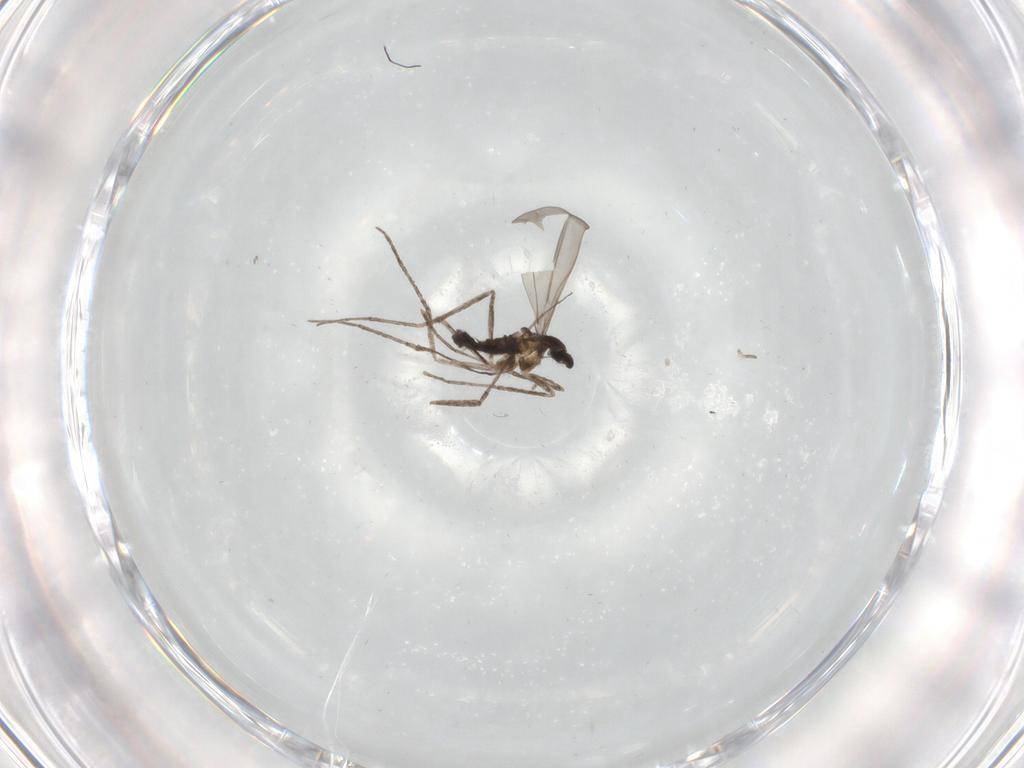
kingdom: Animalia
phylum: Arthropoda
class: Insecta
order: Diptera
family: Cecidomyiidae
